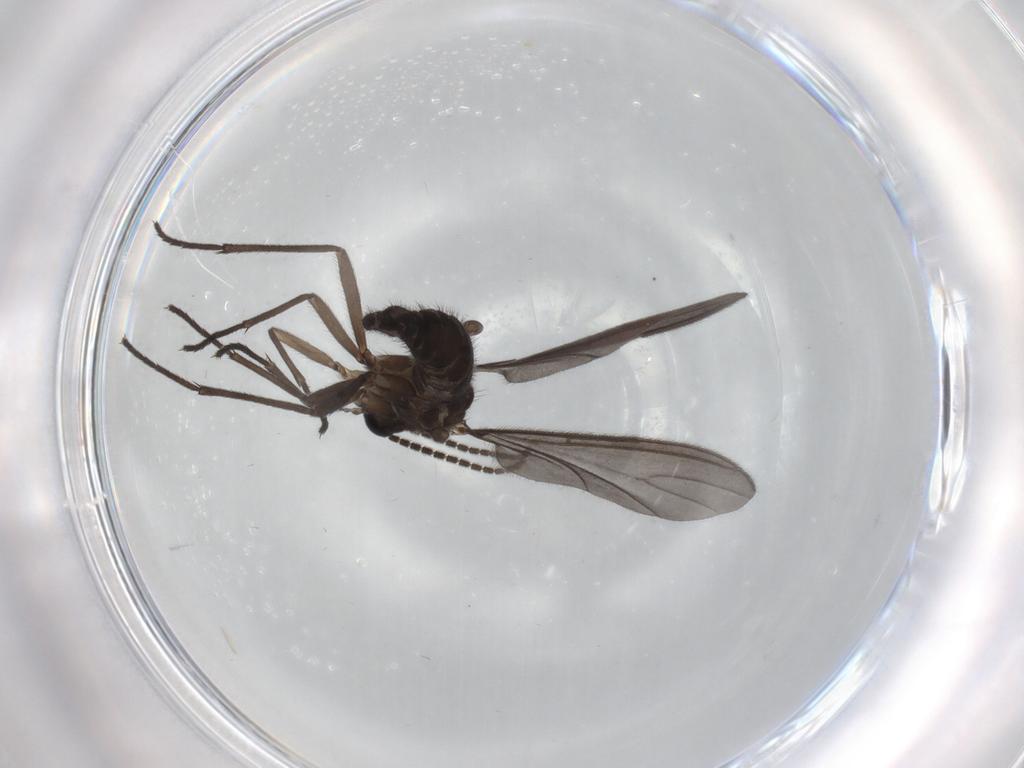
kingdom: Animalia
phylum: Arthropoda
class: Insecta
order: Diptera
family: Sciaridae
